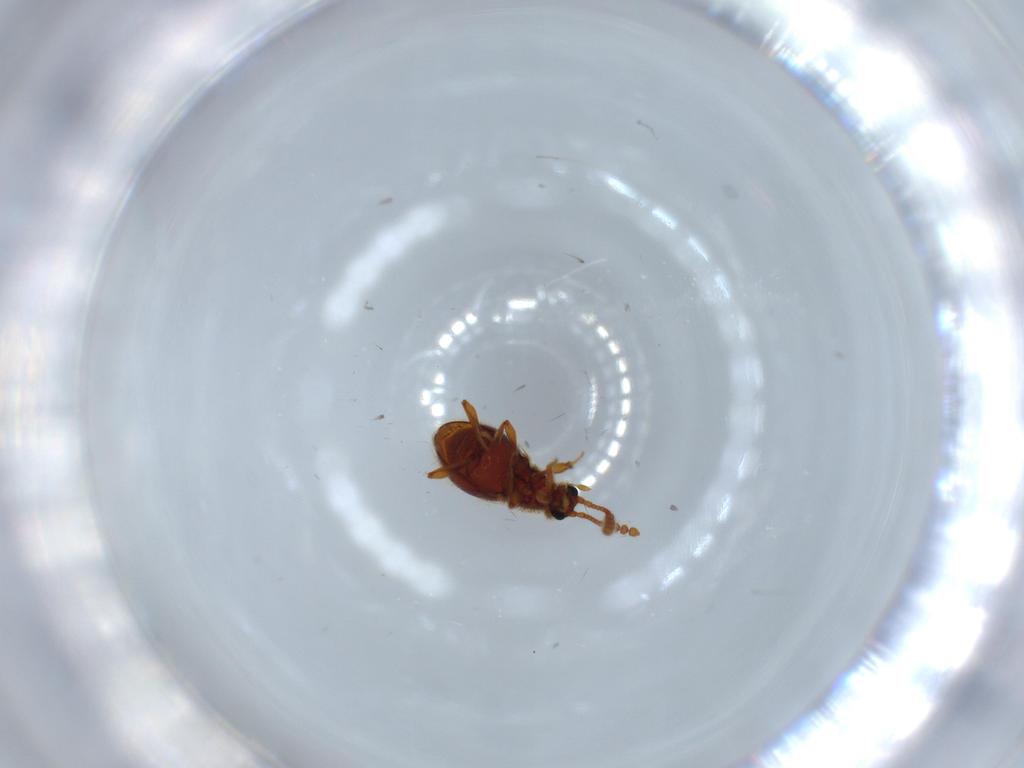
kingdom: Animalia
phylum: Arthropoda
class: Insecta
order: Coleoptera
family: Staphylinidae
